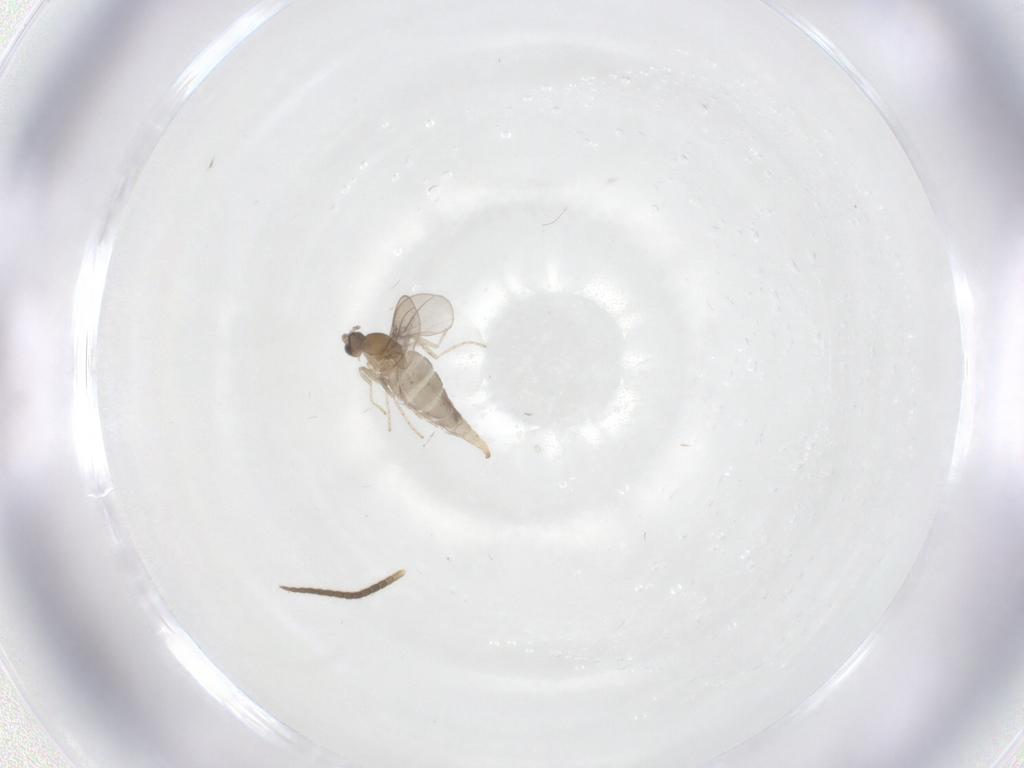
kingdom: Animalia
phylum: Arthropoda
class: Insecta
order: Diptera
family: Cecidomyiidae
